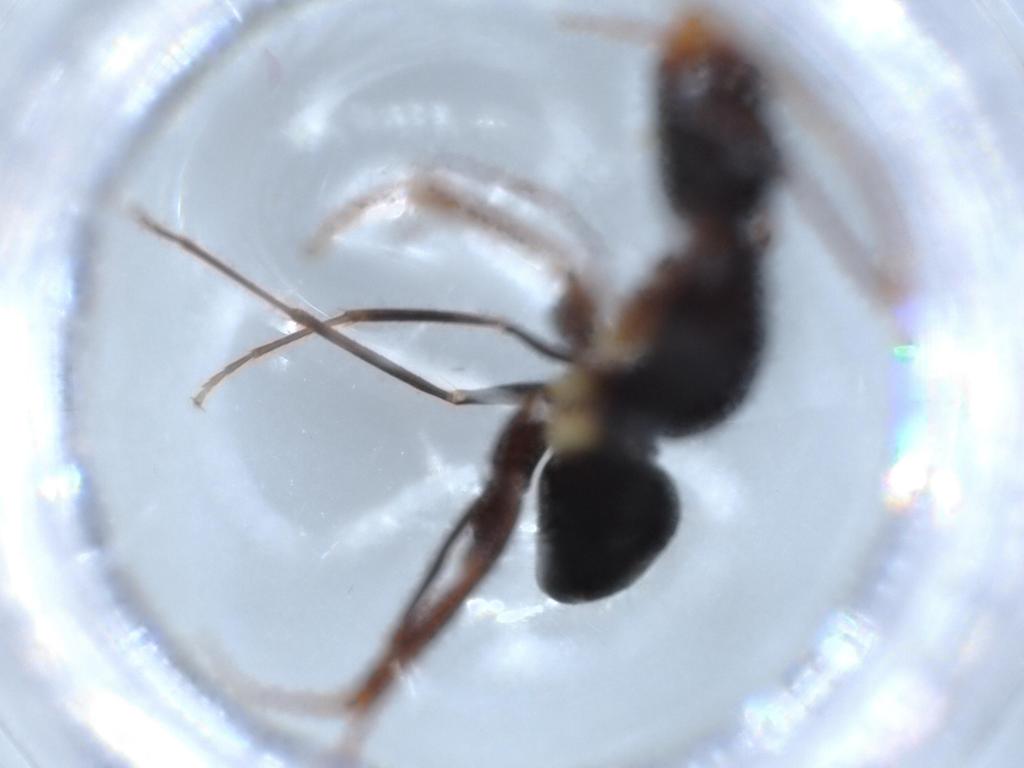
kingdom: Animalia
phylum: Arthropoda
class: Insecta
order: Hymenoptera
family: Formicidae
